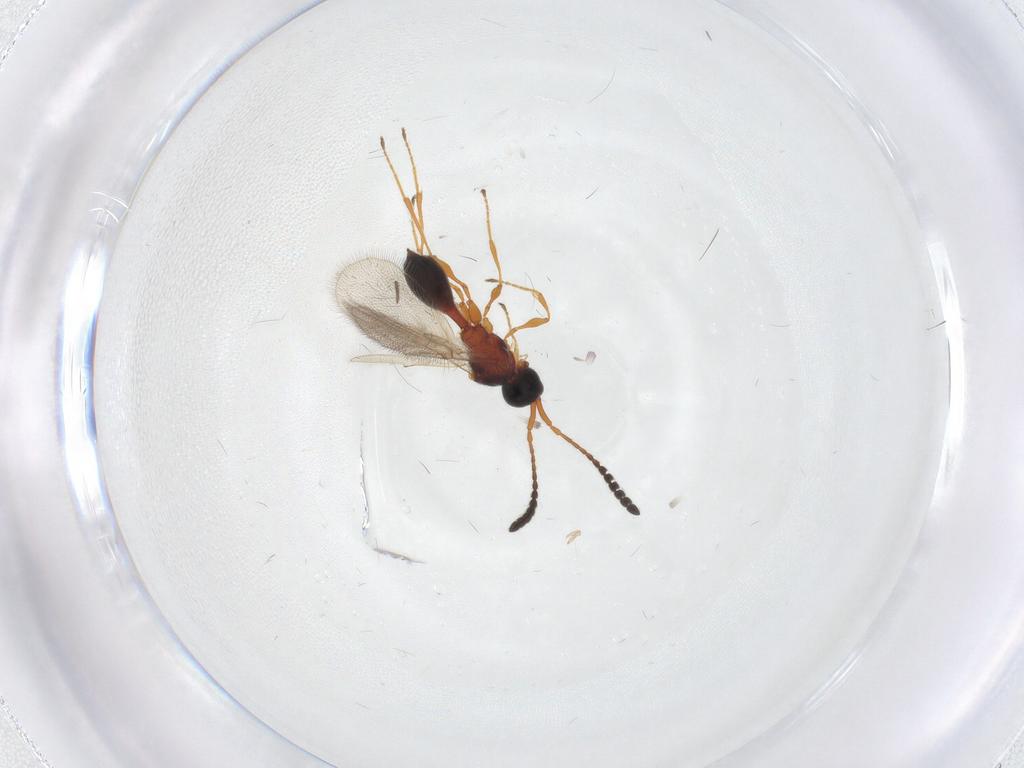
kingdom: Animalia
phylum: Arthropoda
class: Insecta
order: Hymenoptera
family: Diapriidae
